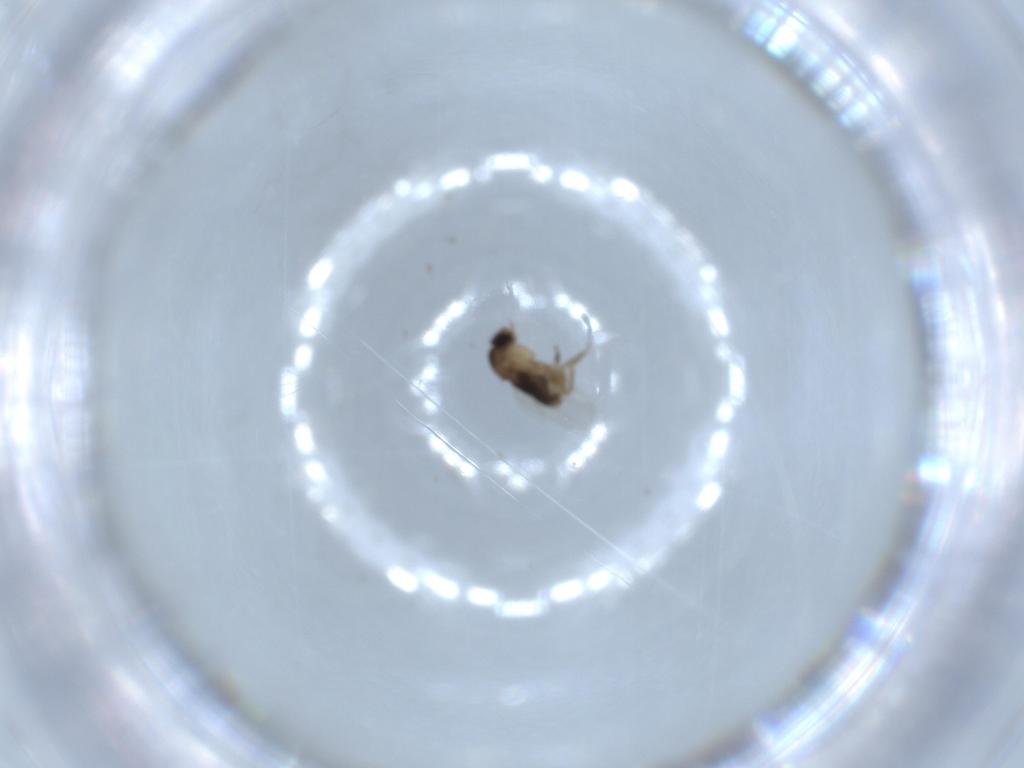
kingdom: Animalia
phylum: Arthropoda
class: Insecta
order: Diptera
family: Phoridae
